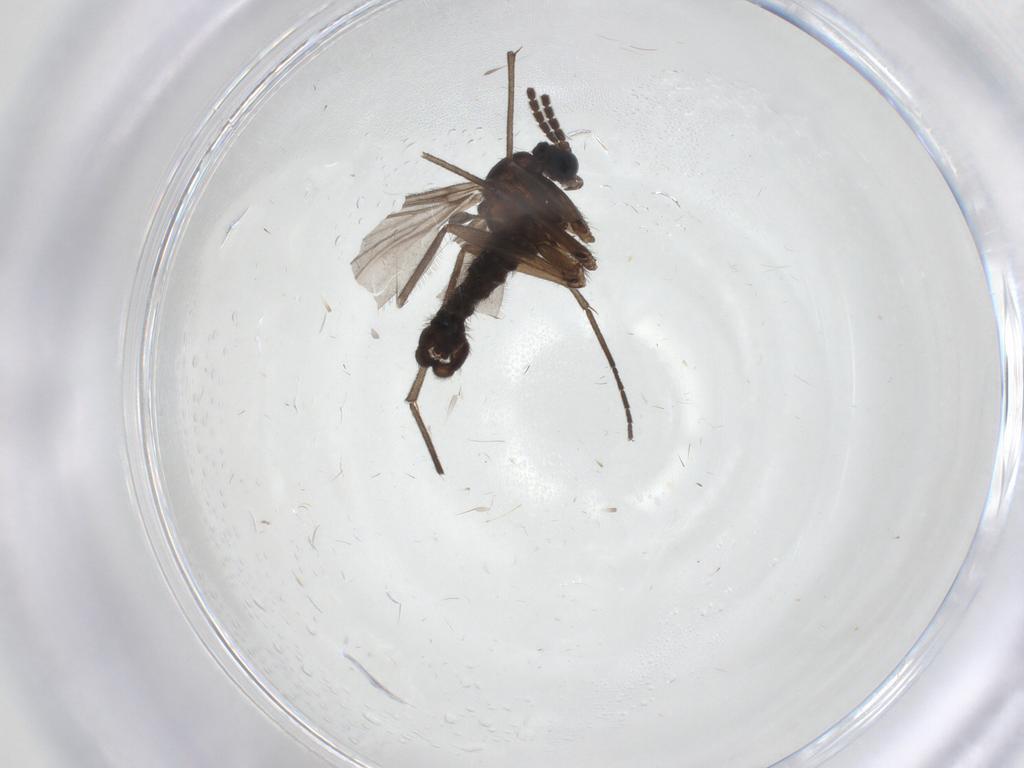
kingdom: Animalia
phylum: Arthropoda
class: Insecta
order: Diptera
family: Sciaridae
